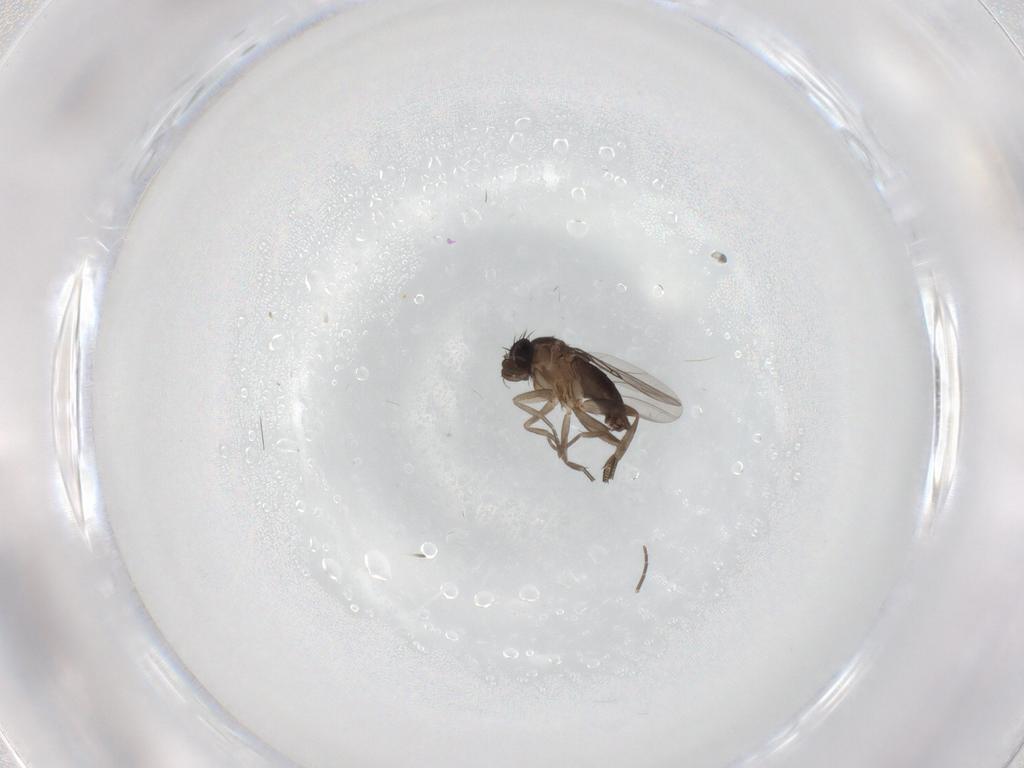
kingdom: Animalia
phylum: Arthropoda
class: Insecta
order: Diptera
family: Phoridae
